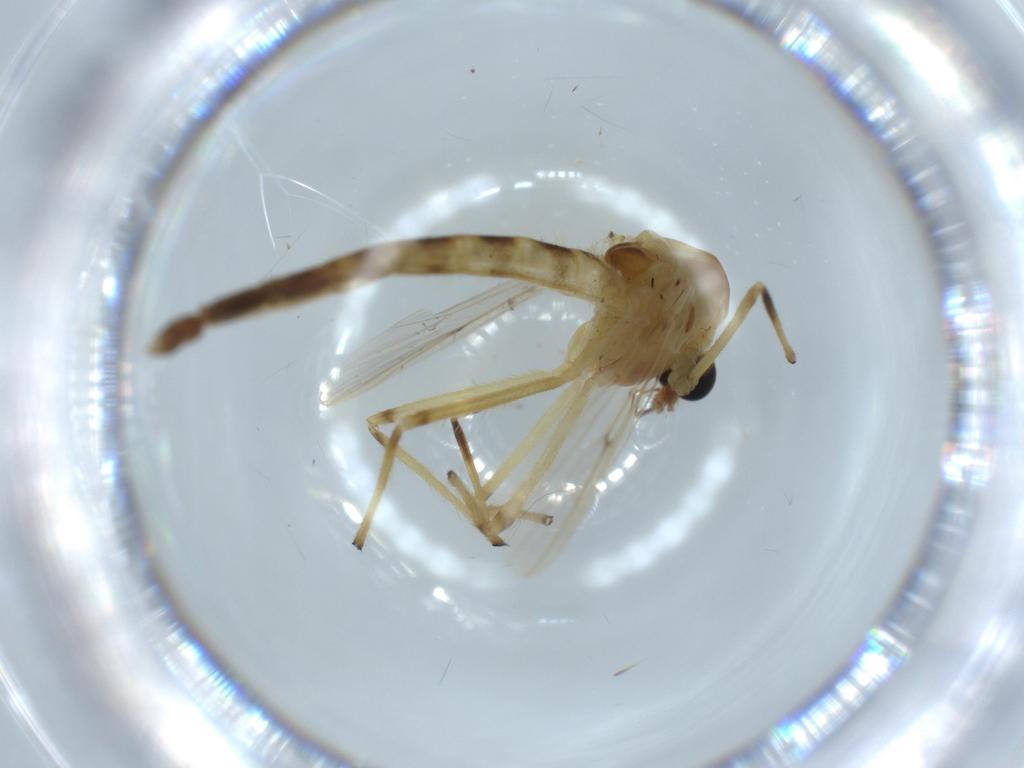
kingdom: Animalia
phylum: Arthropoda
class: Insecta
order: Diptera
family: Chironomidae
